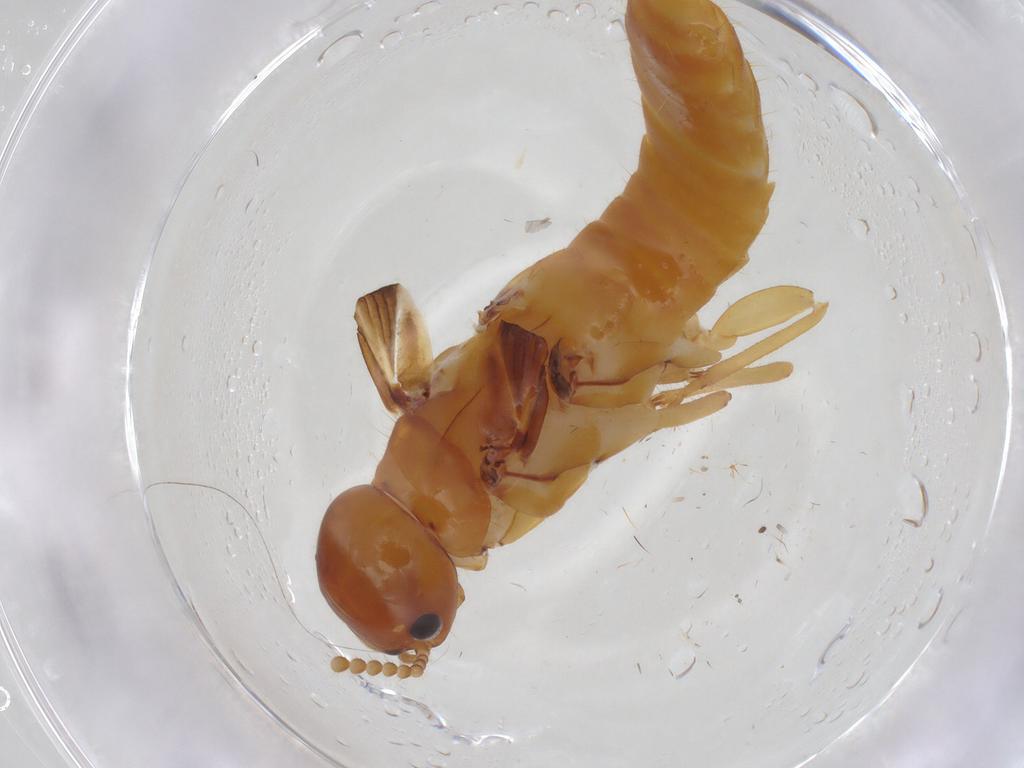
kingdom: Animalia
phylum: Arthropoda
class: Insecta
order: Blattodea
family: Kalotermitidae
